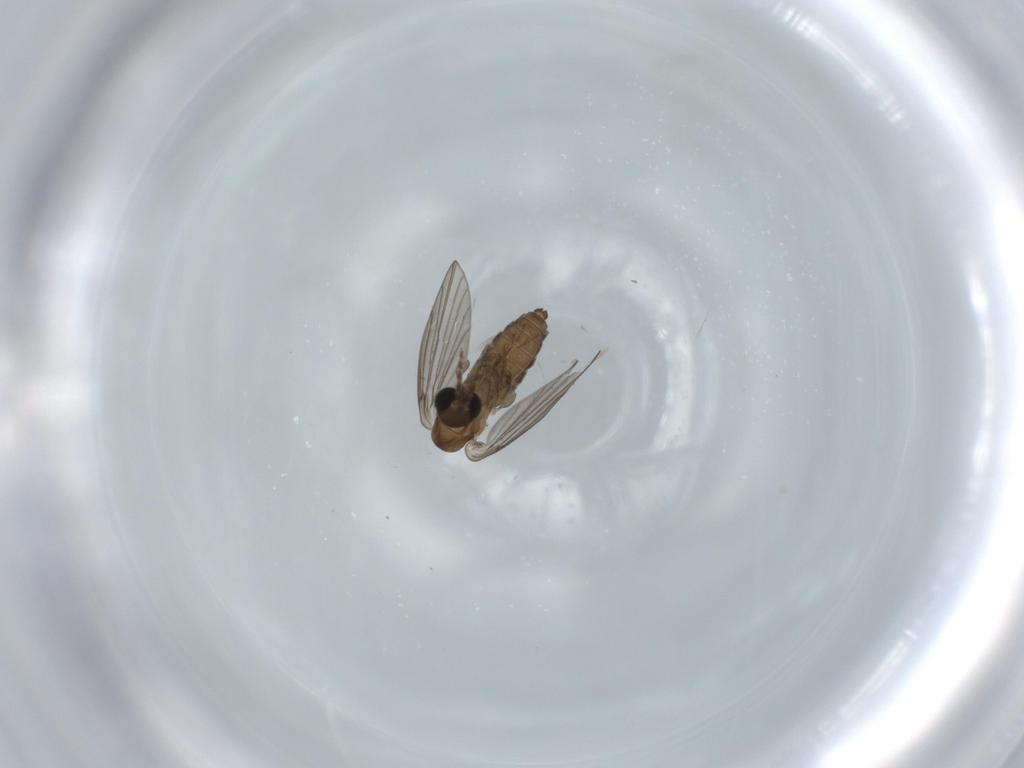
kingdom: Animalia
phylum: Arthropoda
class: Insecta
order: Diptera
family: Psychodidae
